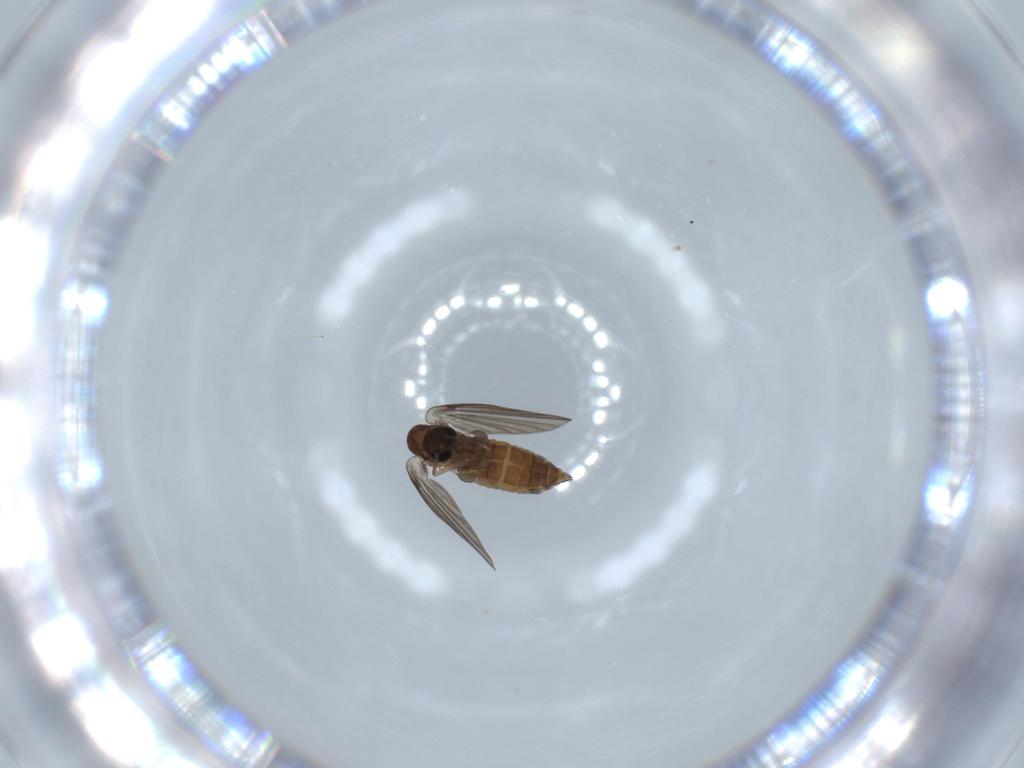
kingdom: Animalia
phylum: Arthropoda
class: Insecta
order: Diptera
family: Psychodidae
